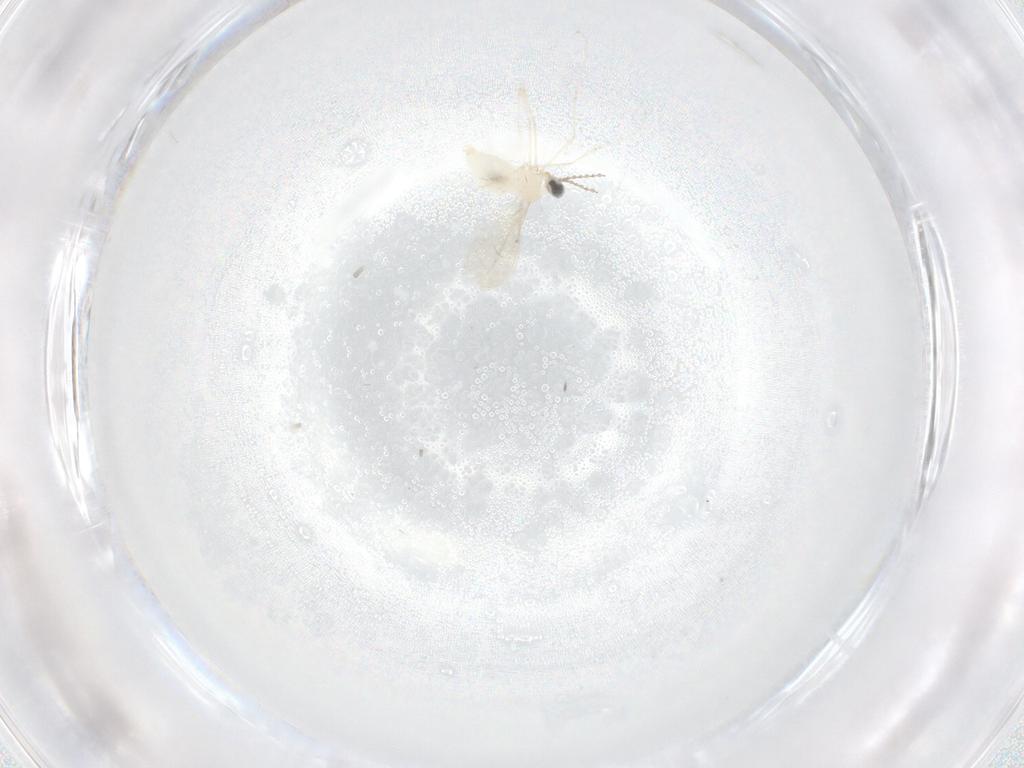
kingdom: Animalia
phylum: Arthropoda
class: Insecta
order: Diptera
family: Cecidomyiidae
